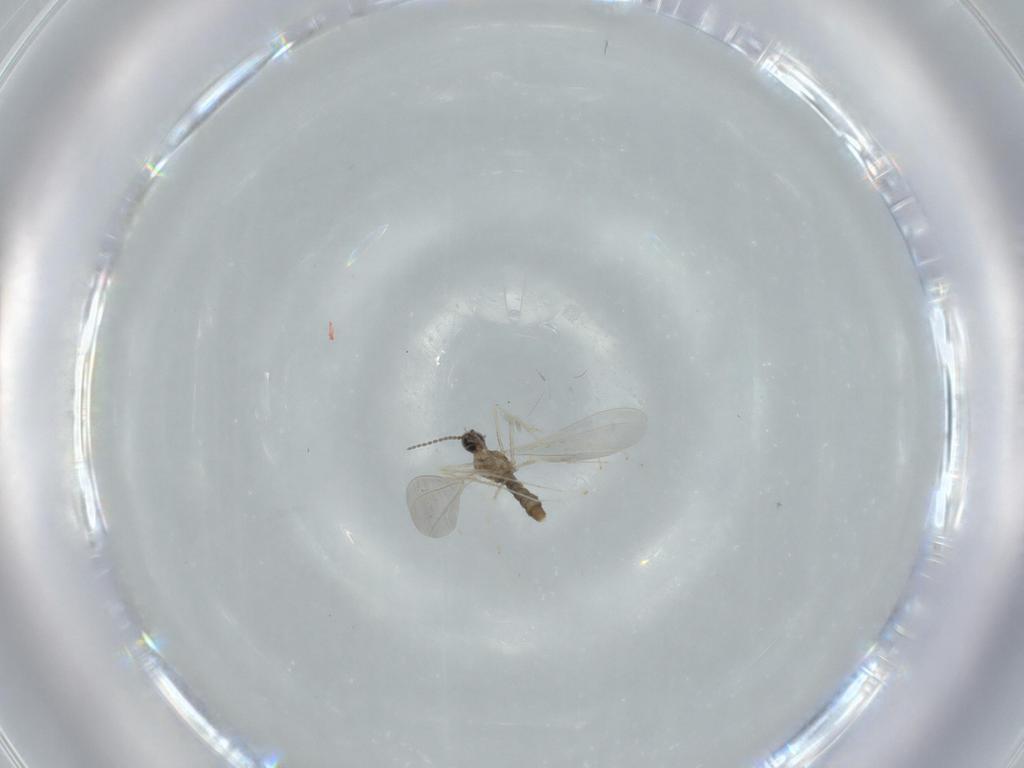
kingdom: Animalia
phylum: Arthropoda
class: Insecta
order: Diptera
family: Cecidomyiidae
